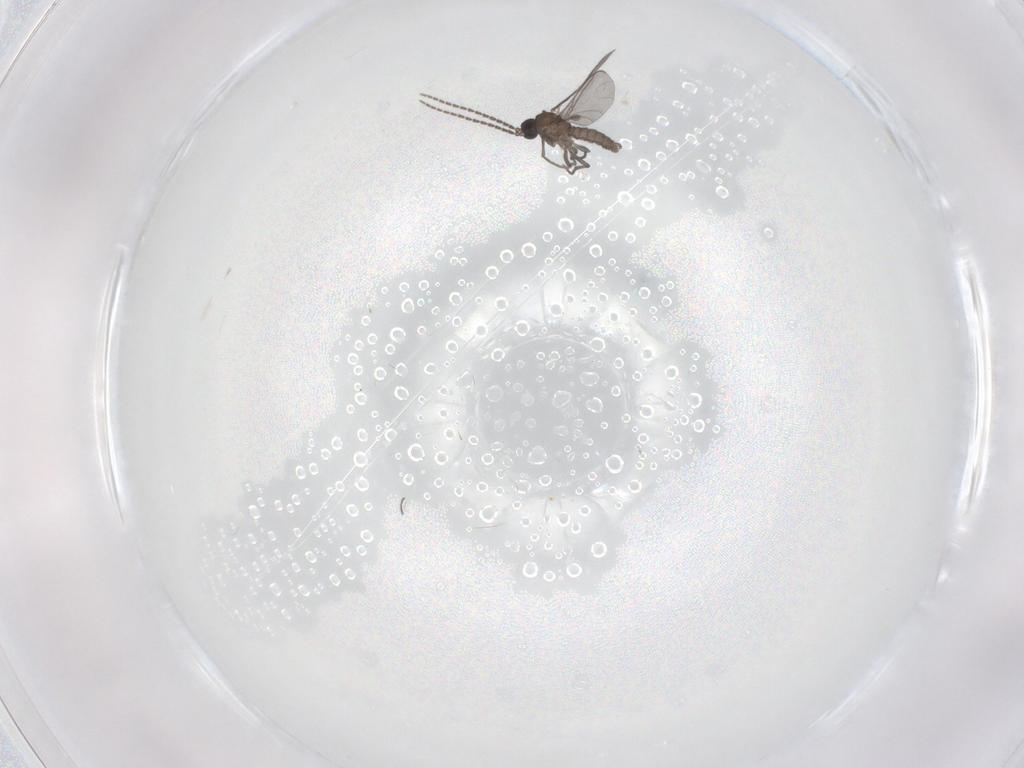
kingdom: Animalia
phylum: Arthropoda
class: Insecta
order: Diptera
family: Sciaridae
